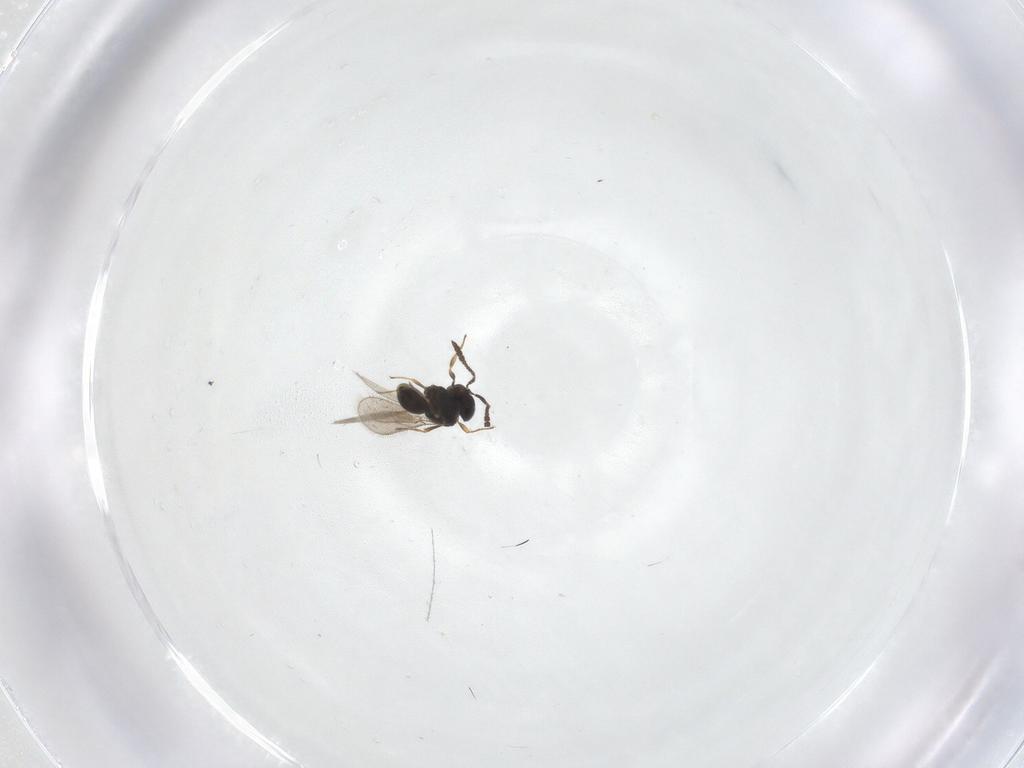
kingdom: Animalia
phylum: Arthropoda
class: Insecta
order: Hymenoptera
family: Scelionidae
